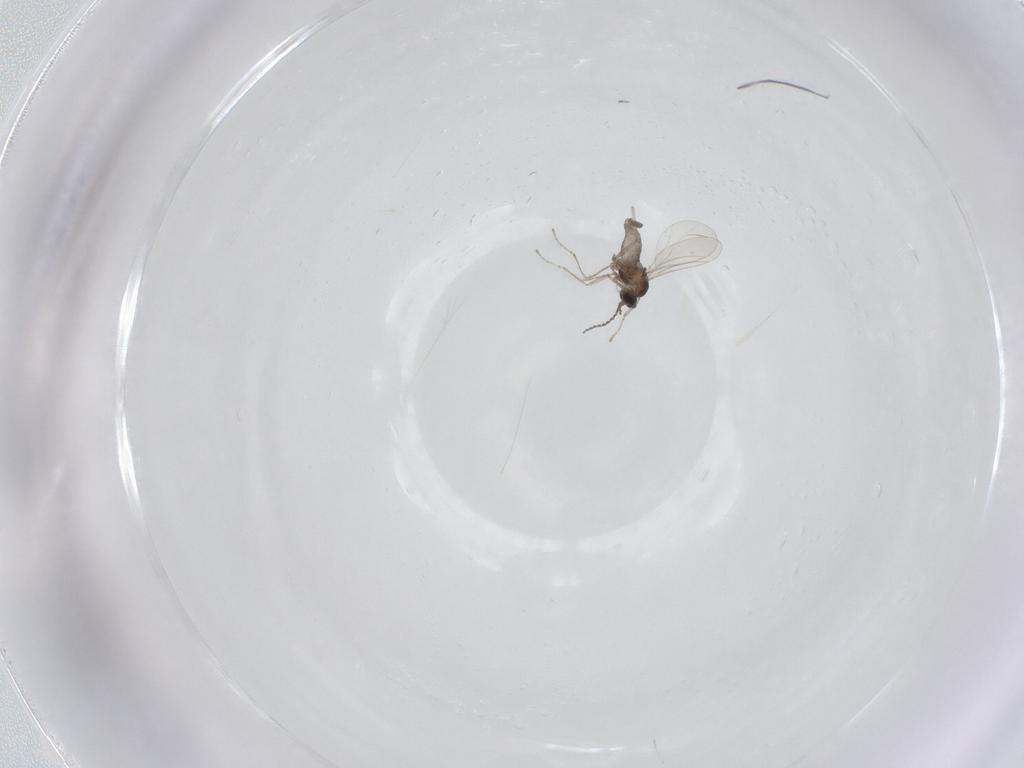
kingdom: Animalia
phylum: Arthropoda
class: Insecta
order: Diptera
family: Cecidomyiidae
